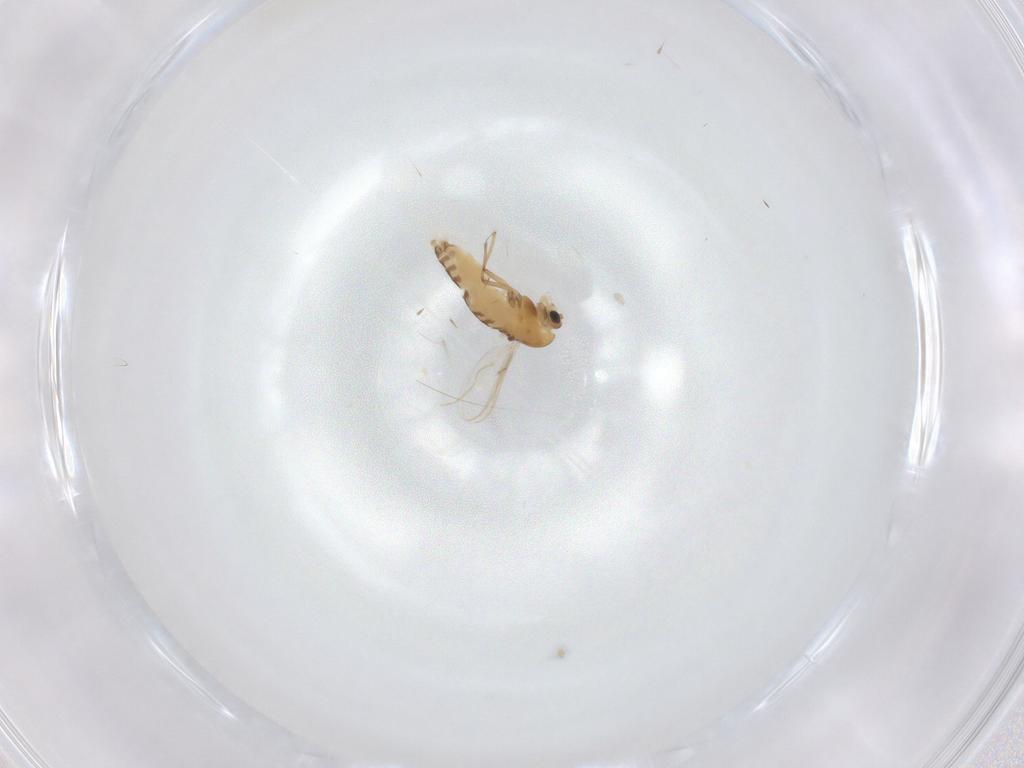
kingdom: Animalia
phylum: Arthropoda
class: Insecta
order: Diptera
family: Chironomidae
